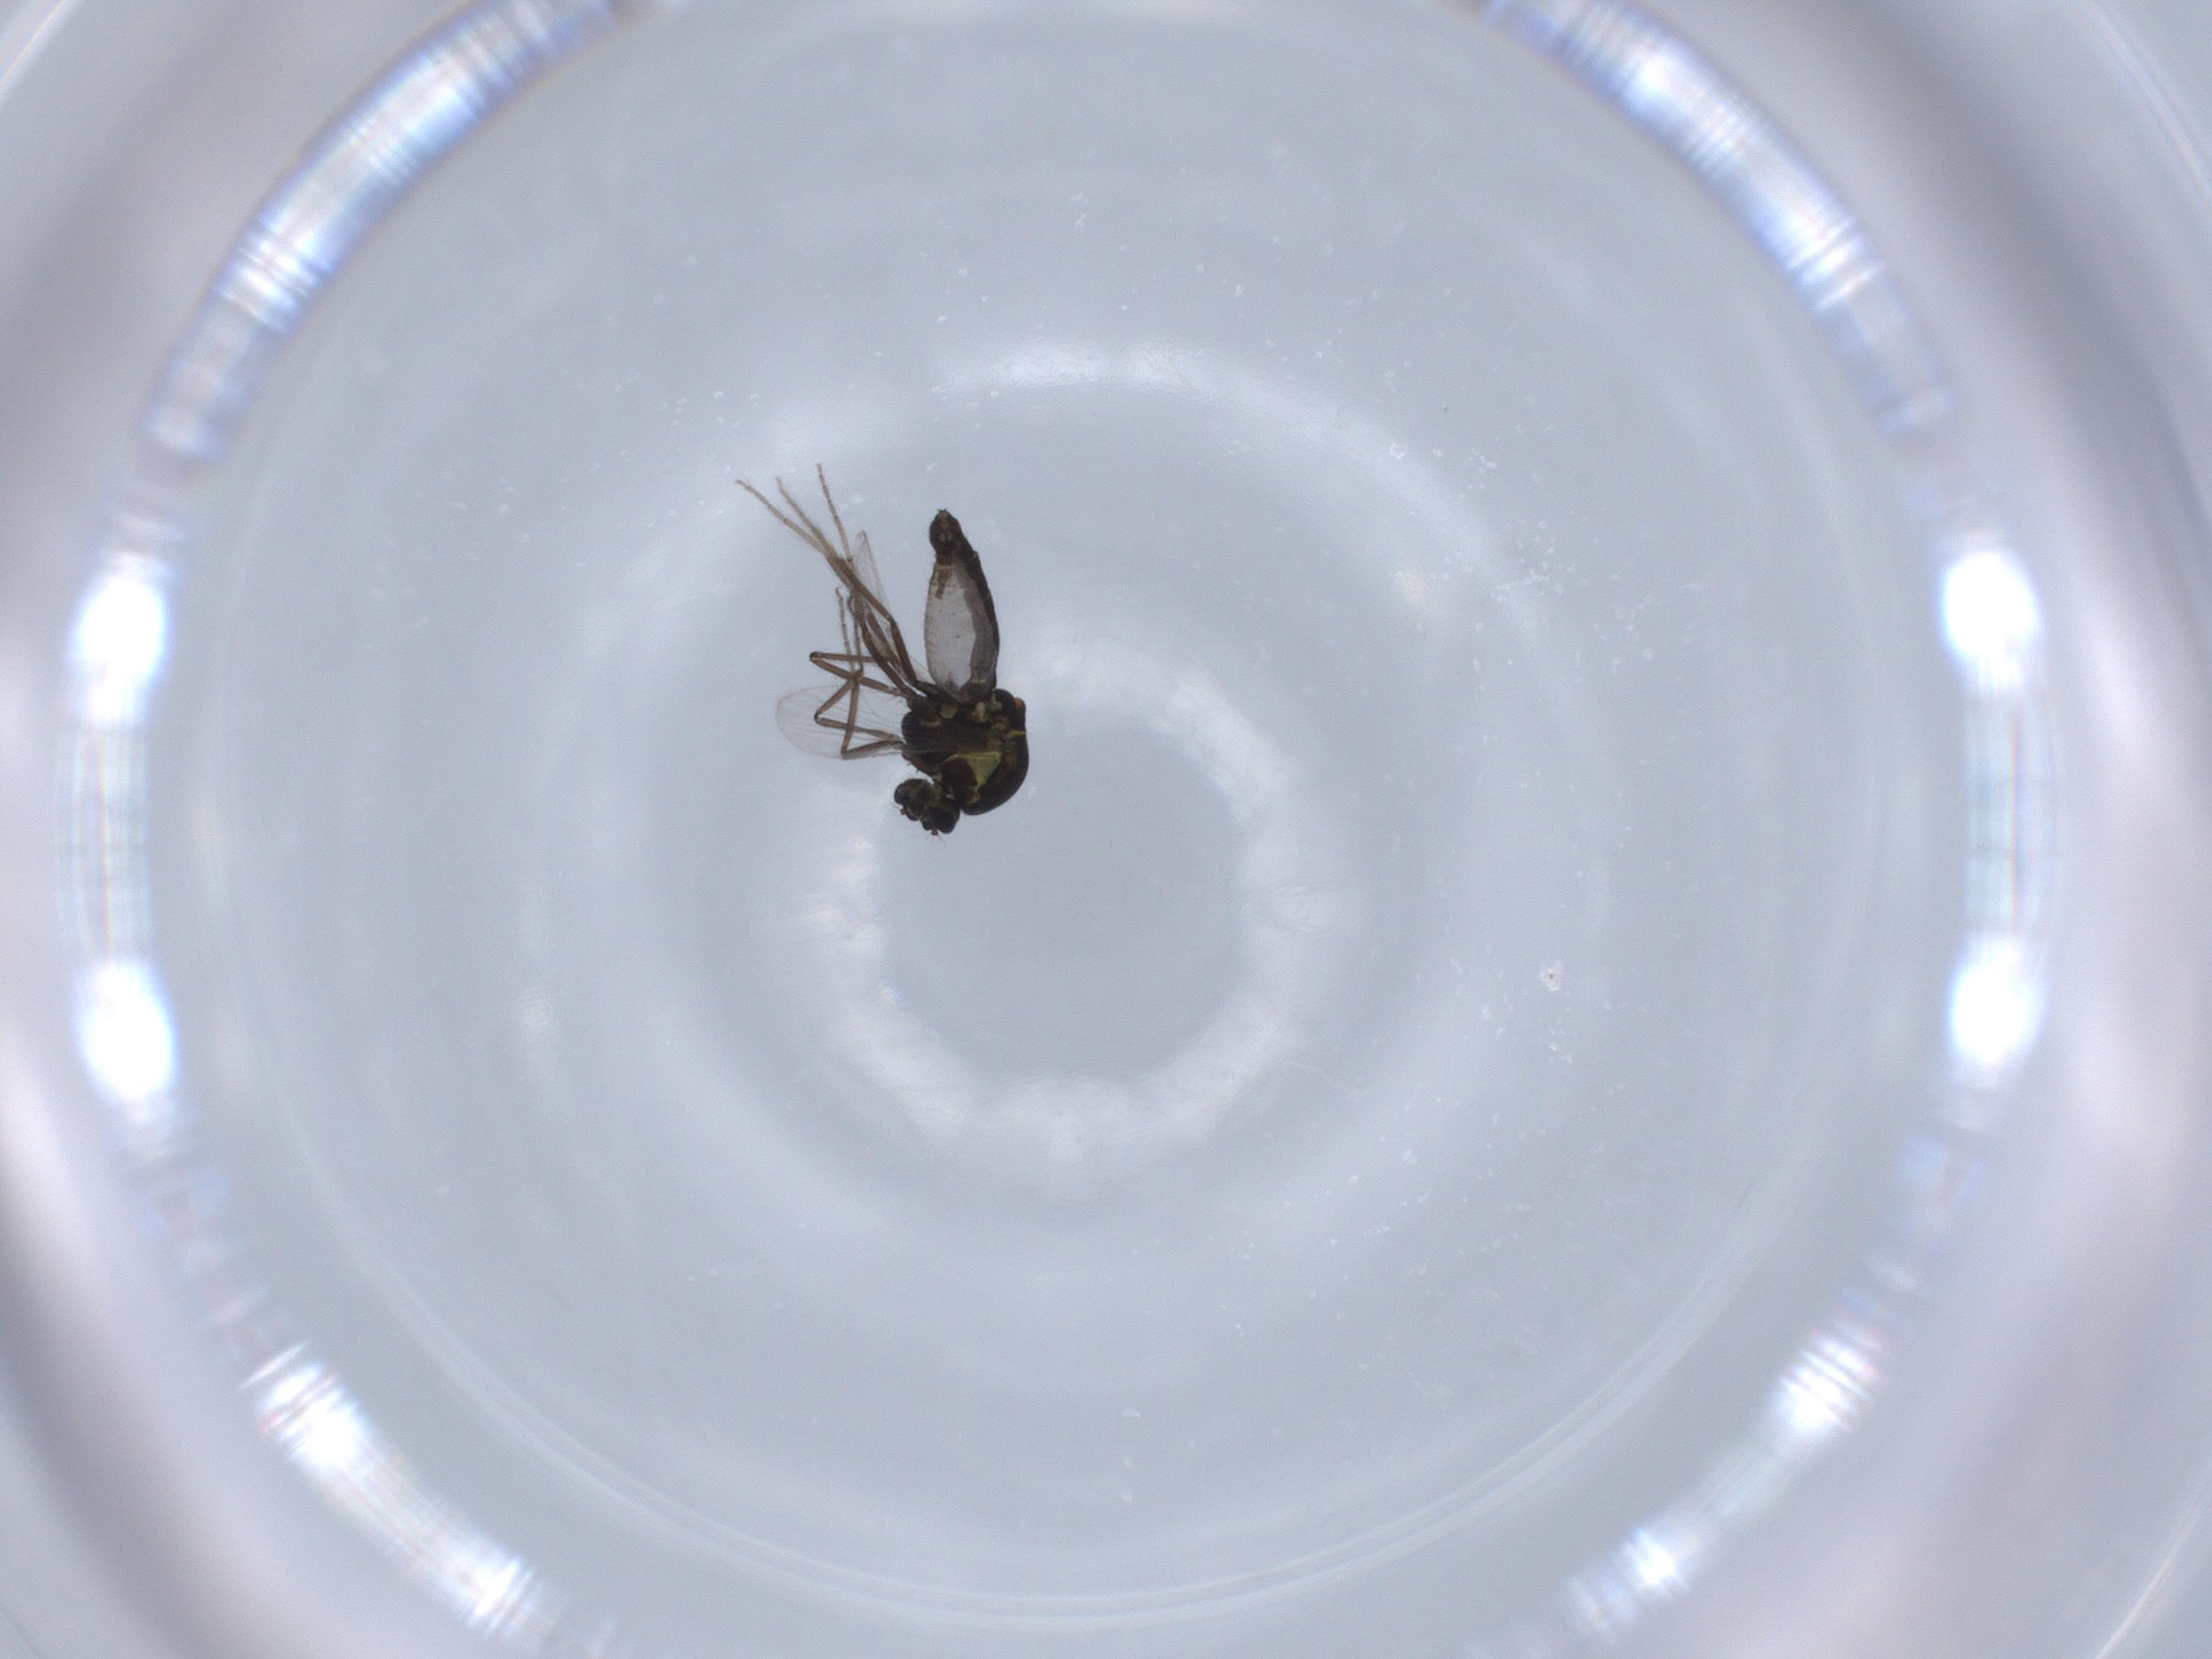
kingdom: Animalia
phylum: Arthropoda
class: Insecta
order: Diptera
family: Ceratopogonidae
